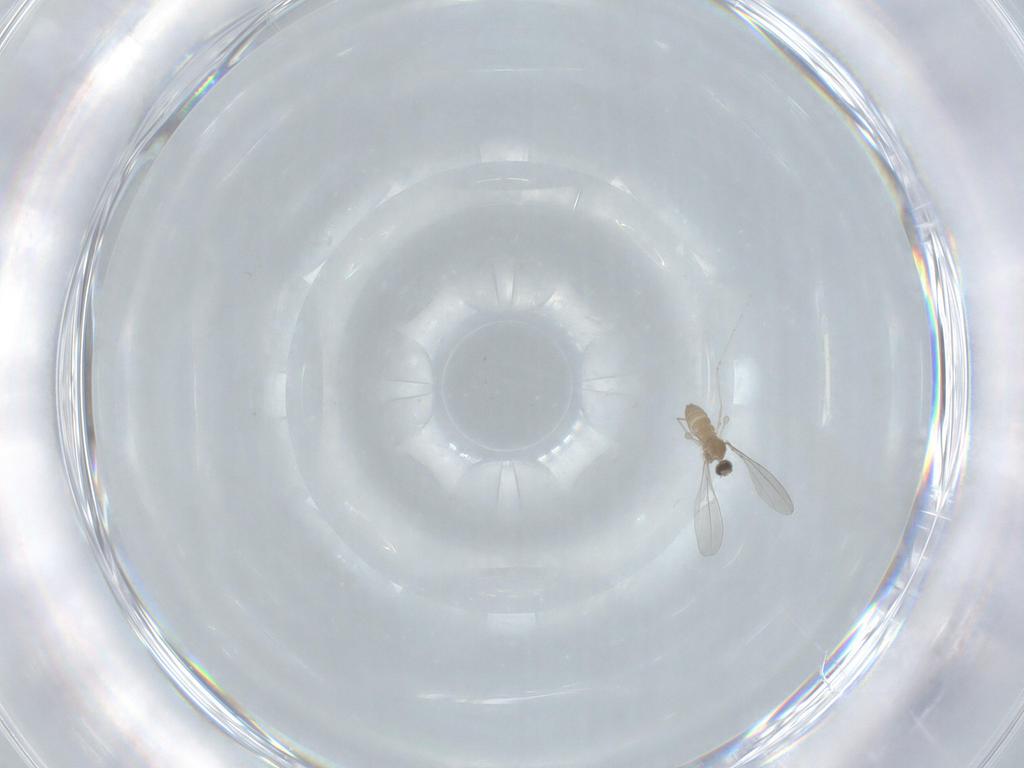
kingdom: Animalia
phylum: Arthropoda
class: Insecta
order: Diptera
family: Cecidomyiidae
